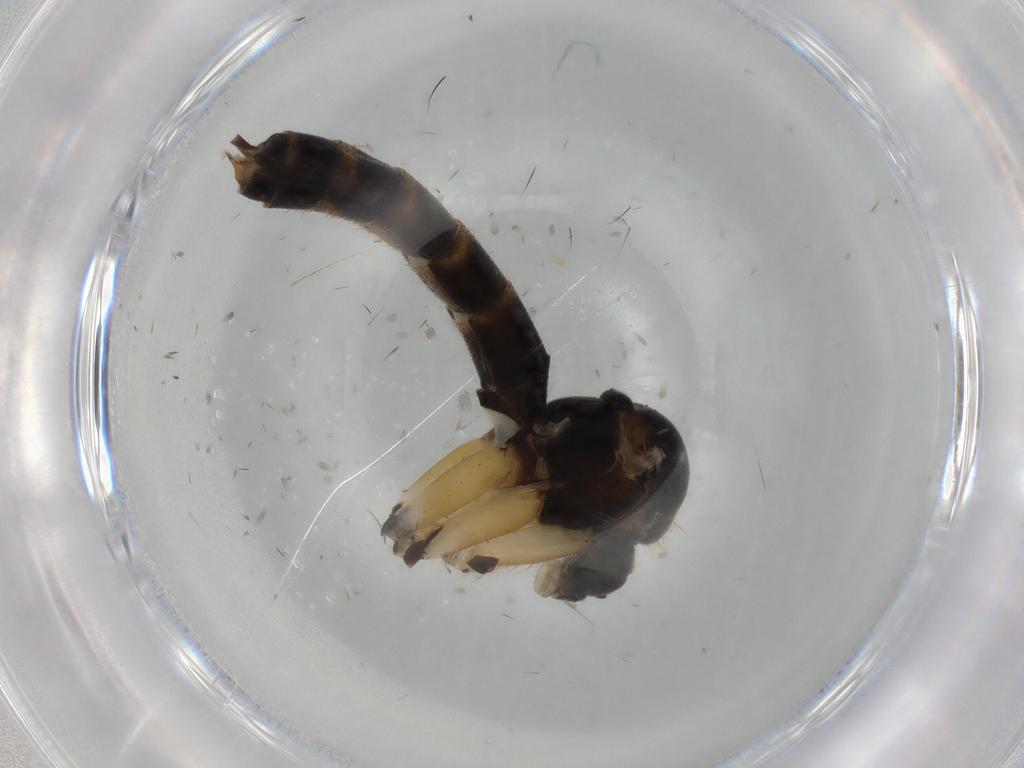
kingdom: Animalia
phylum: Arthropoda
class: Insecta
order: Diptera
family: Mycetophilidae
